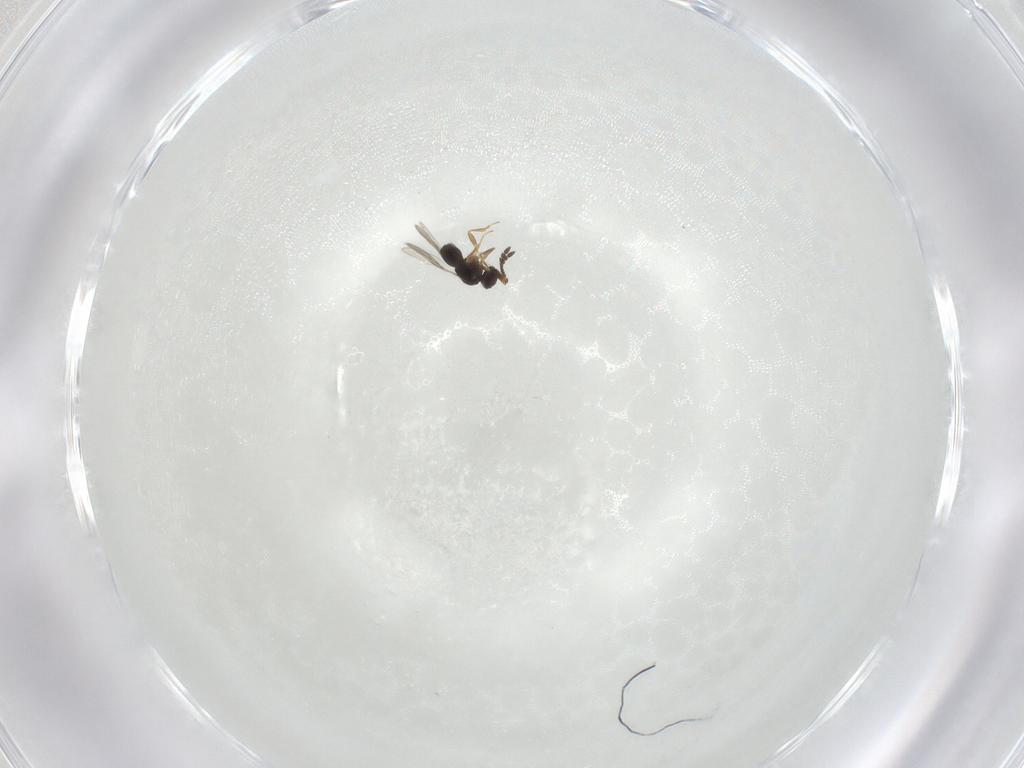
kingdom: Animalia
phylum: Arthropoda
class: Insecta
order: Hymenoptera
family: Ceraphronidae
